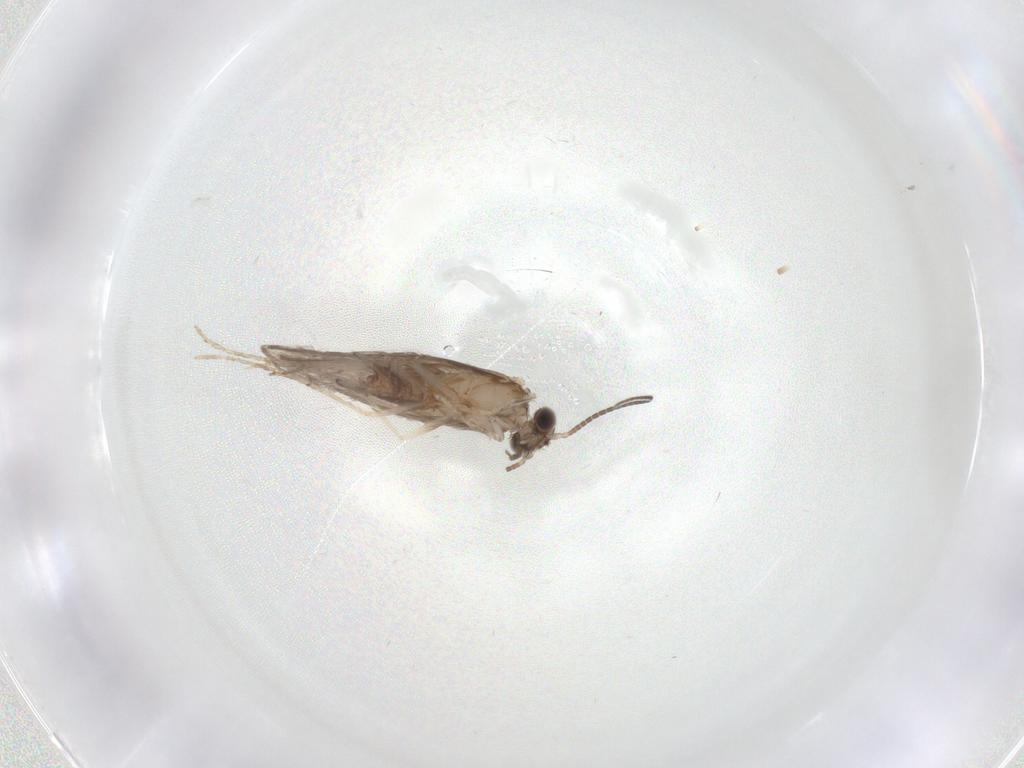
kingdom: Animalia
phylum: Arthropoda
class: Insecta
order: Trichoptera
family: Hydroptilidae
